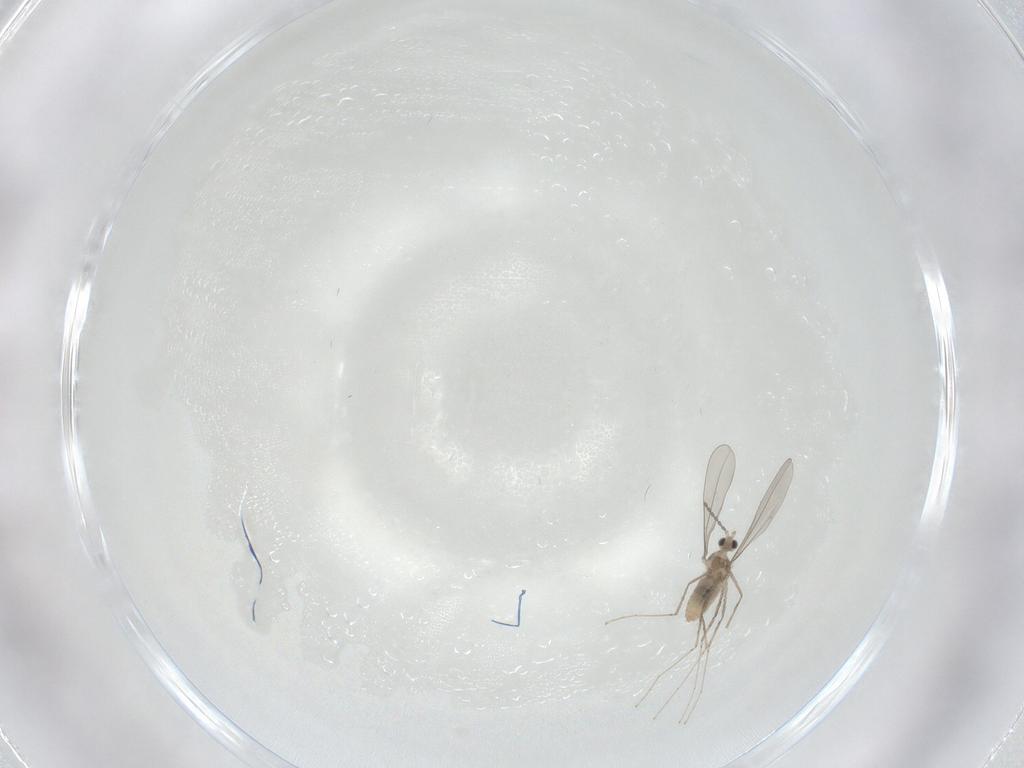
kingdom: Animalia
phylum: Arthropoda
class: Insecta
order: Diptera
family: Cecidomyiidae
